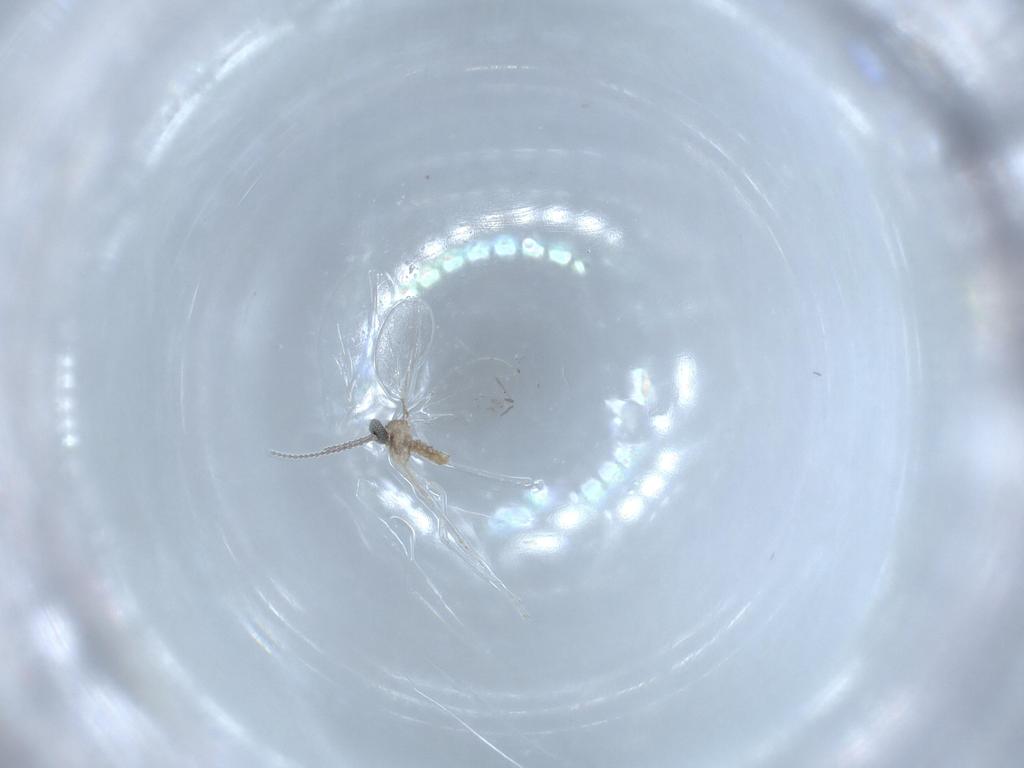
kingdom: Animalia
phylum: Arthropoda
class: Insecta
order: Diptera
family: Cecidomyiidae
